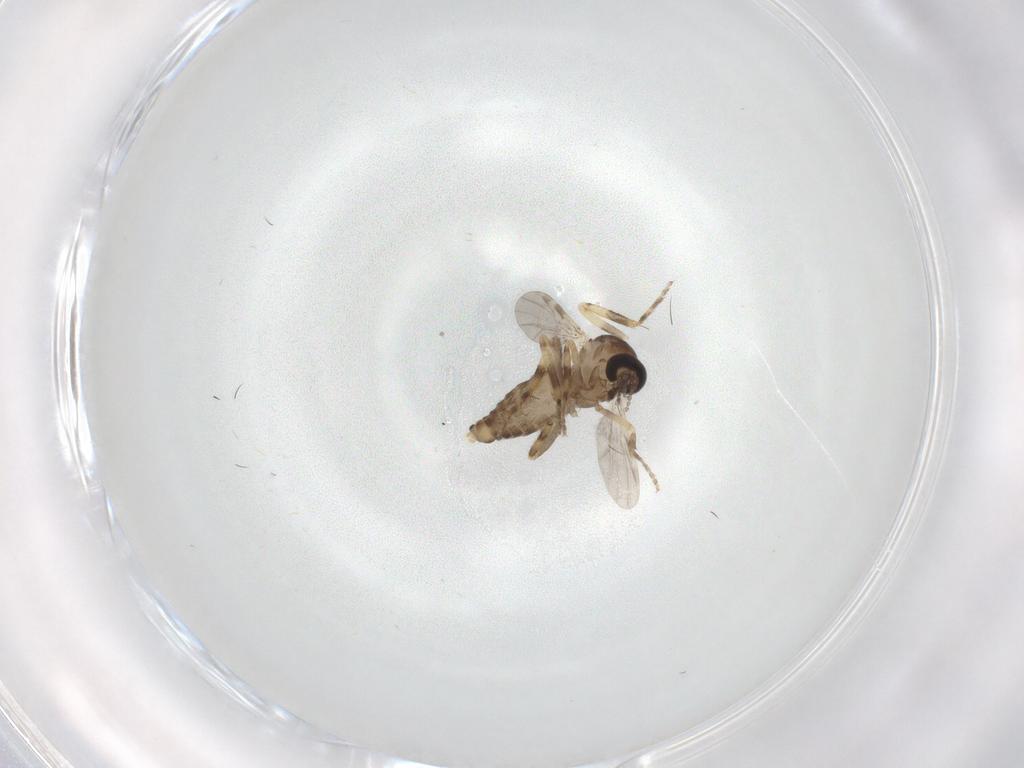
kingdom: Animalia
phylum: Arthropoda
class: Insecta
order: Diptera
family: Ceratopogonidae
